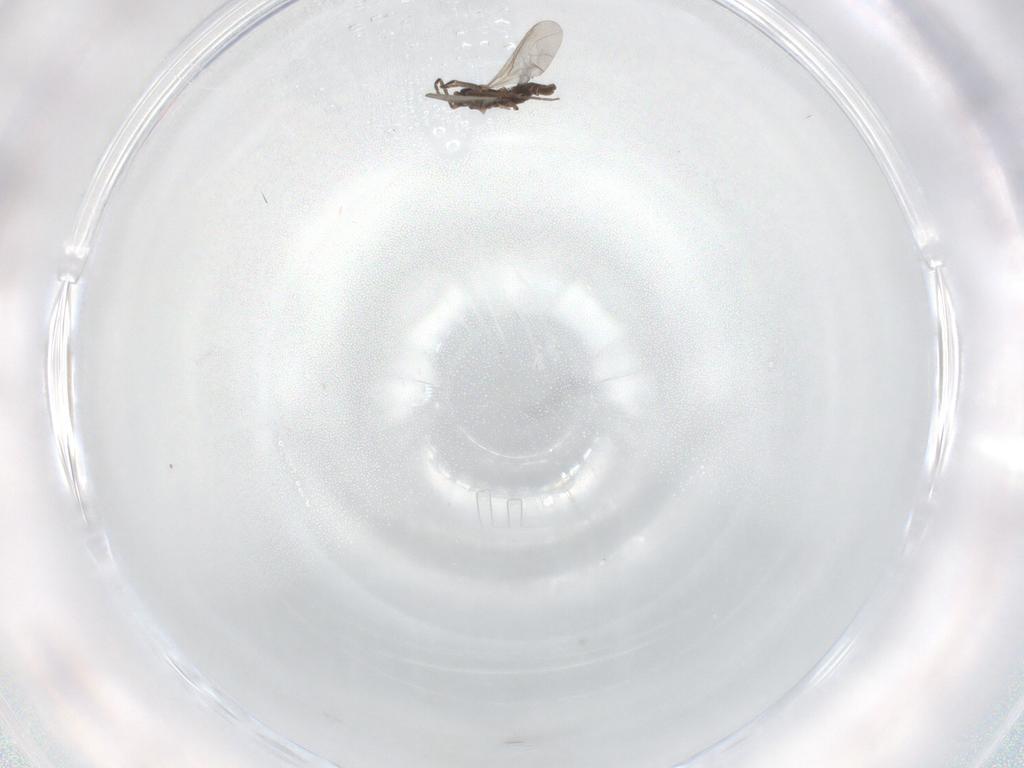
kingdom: Animalia
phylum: Arthropoda
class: Insecta
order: Diptera
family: Sciaridae
